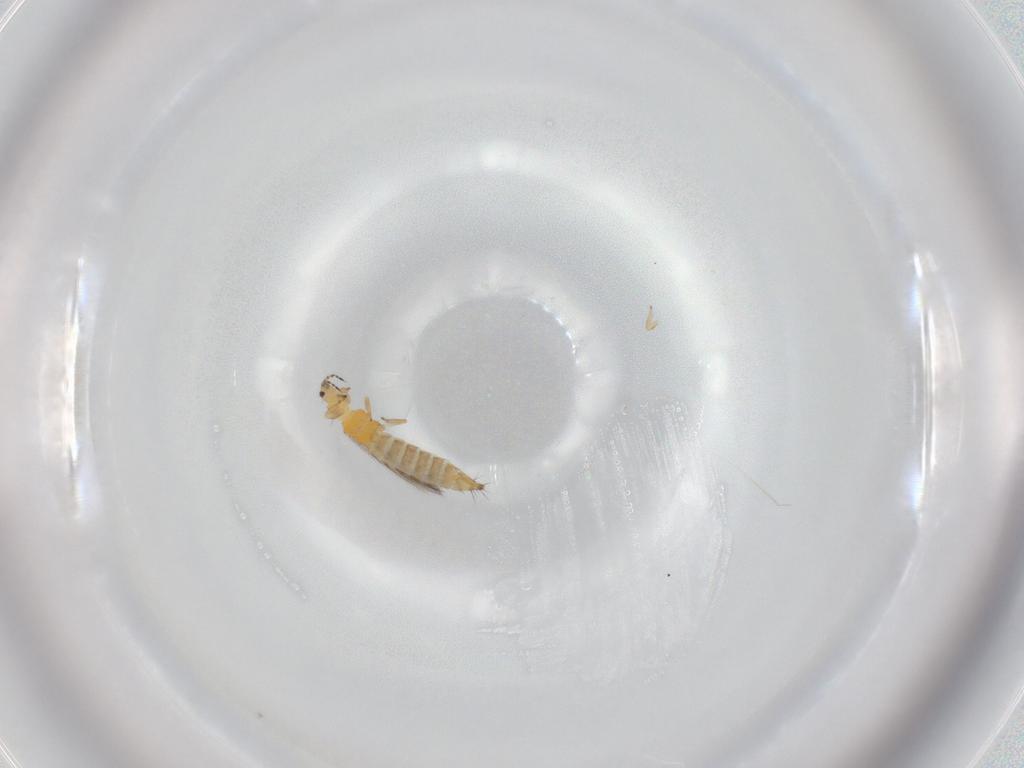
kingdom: Animalia
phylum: Arthropoda
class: Insecta
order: Thysanoptera
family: Thripidae
